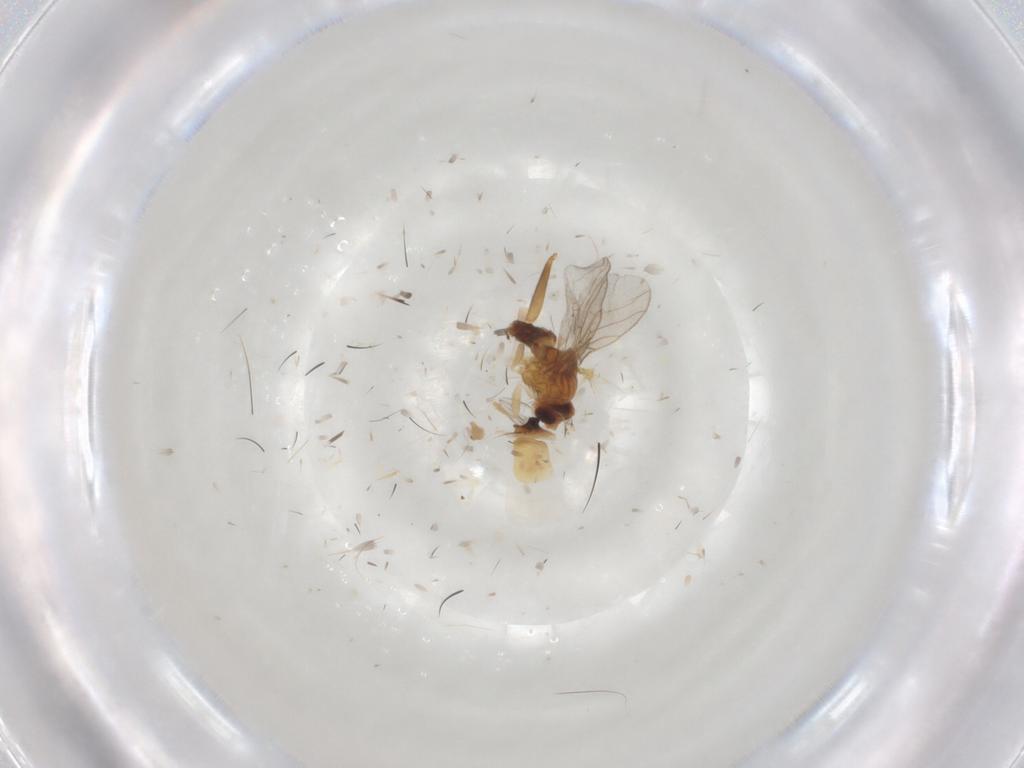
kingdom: Animalia
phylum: Arthropoda
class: Insecta
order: Diptera
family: Chloropidae
